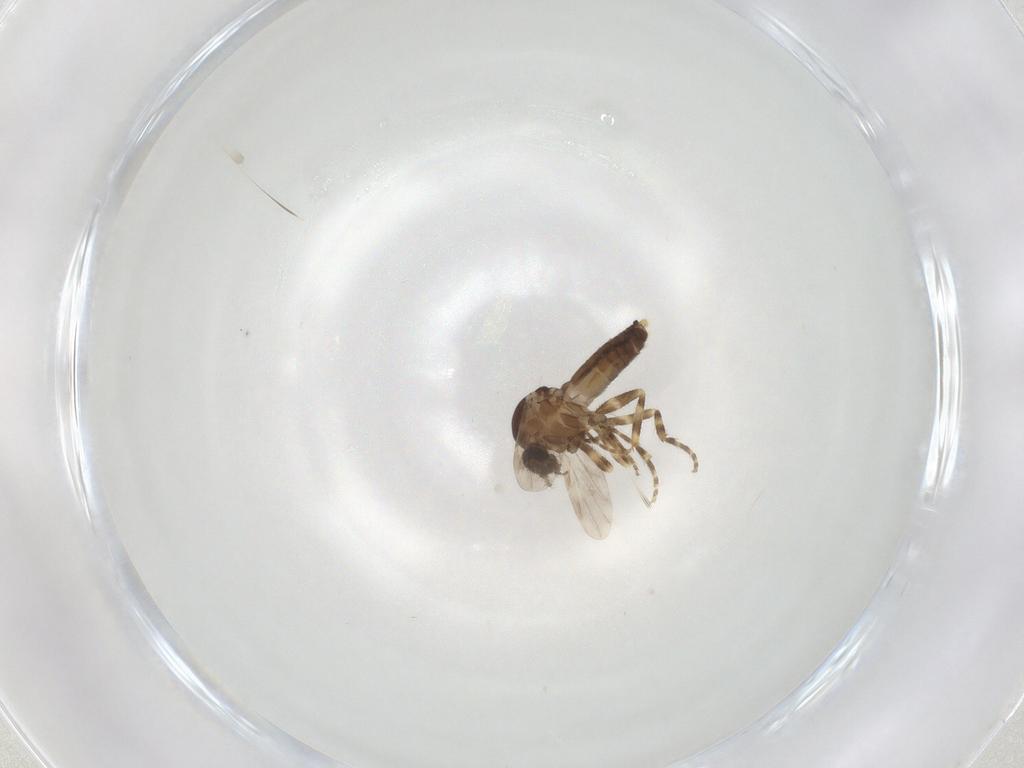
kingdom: Animalia
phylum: Arthropoda
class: Insecta
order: Diptera
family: Ceratopogonidae
